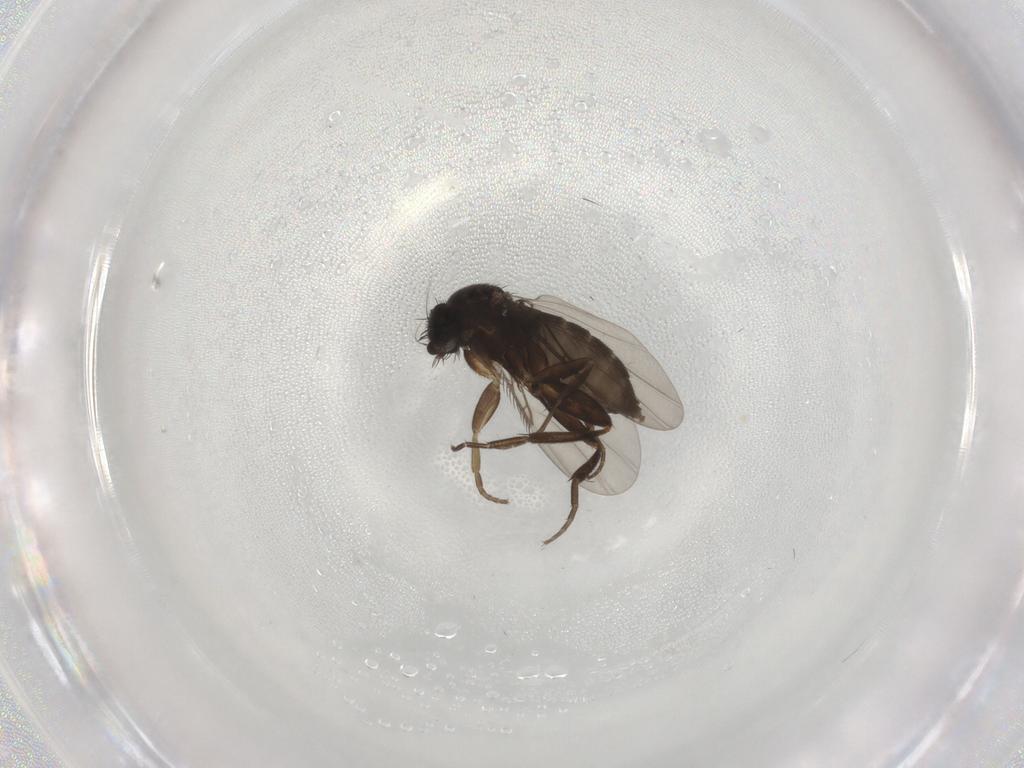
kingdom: Animalia
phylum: Arthropoda
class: Insecta
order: Diptera
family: Phoridae
